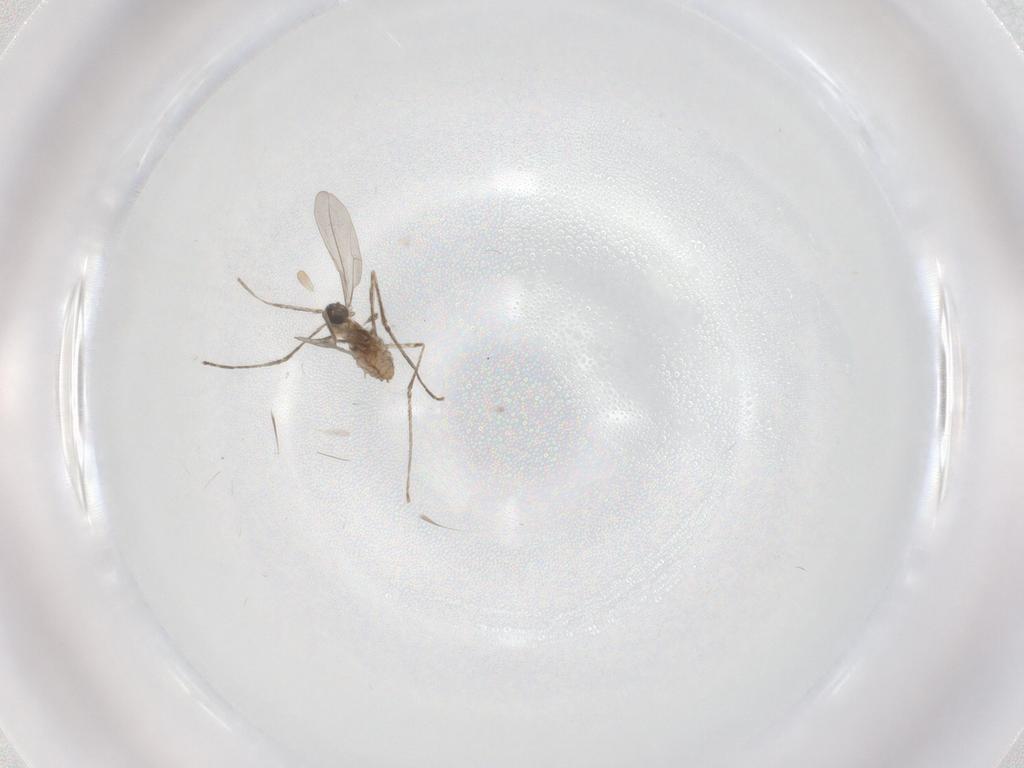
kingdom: Animalia
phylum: Arthropoda
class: Insecta
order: Diptera
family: Cecidomyiidae
